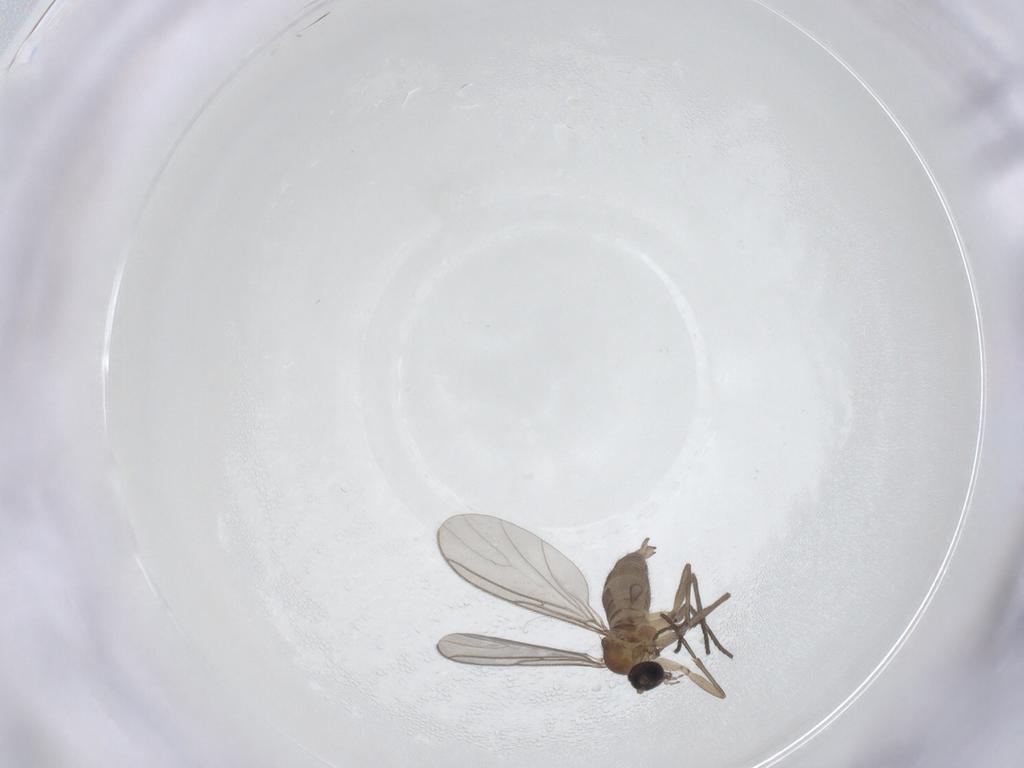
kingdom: Animalia
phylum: Arthropoda
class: Insecta
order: Diptera
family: Sciaridae
